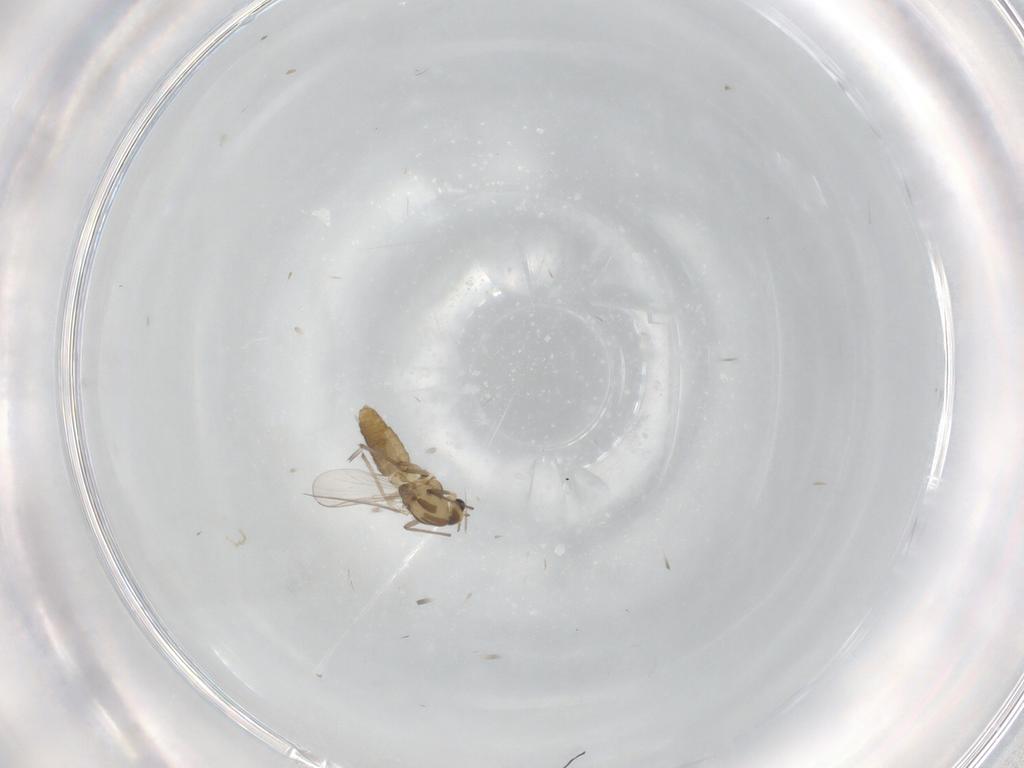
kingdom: Animalia
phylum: Arthropoda
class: Insecta
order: Diptera
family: Chironomidae
